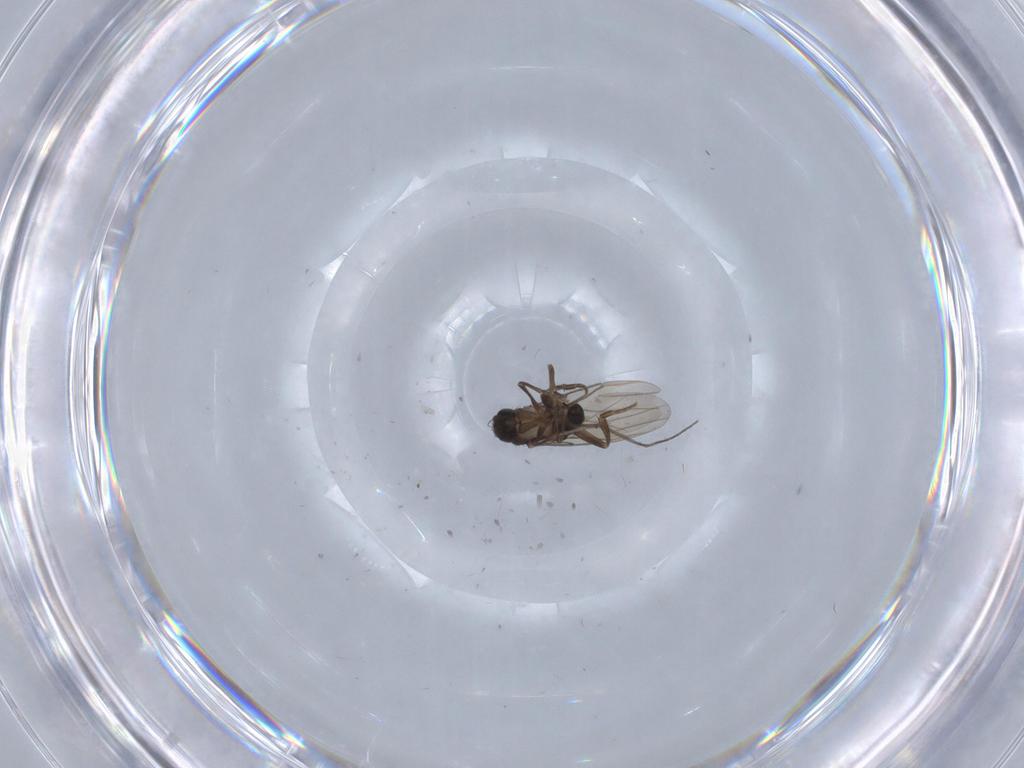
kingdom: Animalia
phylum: Arthropoda
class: Insecta
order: Diptera
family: Phoridae
